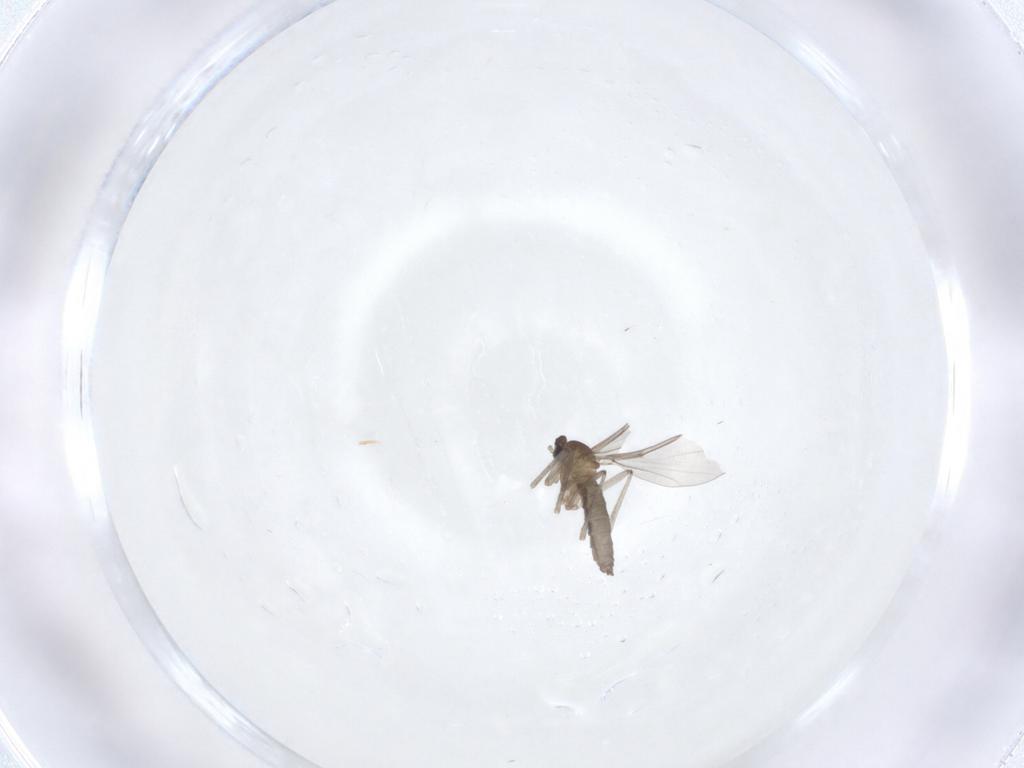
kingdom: Animalia
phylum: Arthropoda
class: Insecta
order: Diptera
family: Cecidomyiidae
